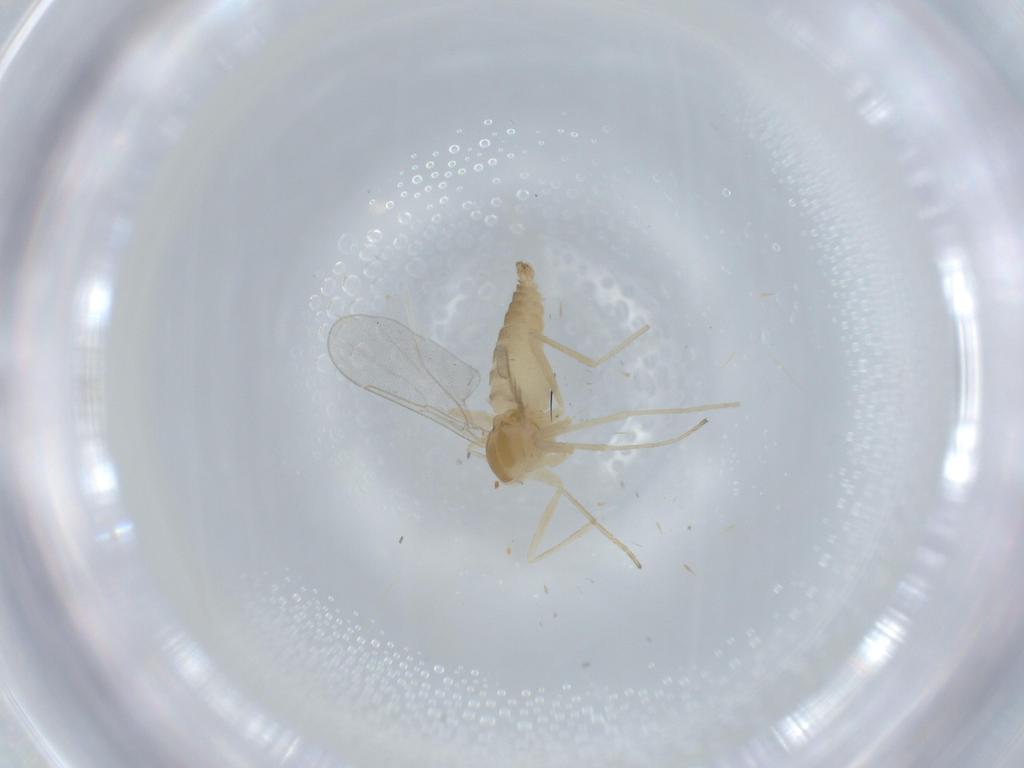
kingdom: Animalia
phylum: Arthropoda
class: Insecta
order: Diptera
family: Cecidomyiidae
